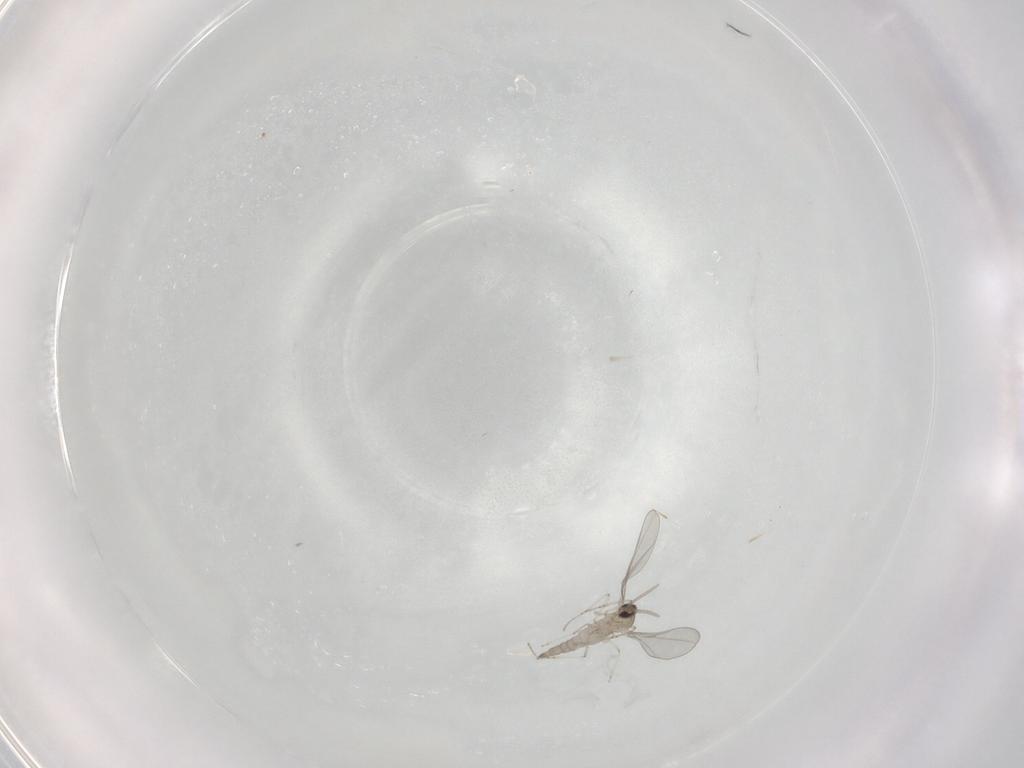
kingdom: Animalia
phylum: Arthropoda
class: Insecta
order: Diptera
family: Cecidomyiidae
